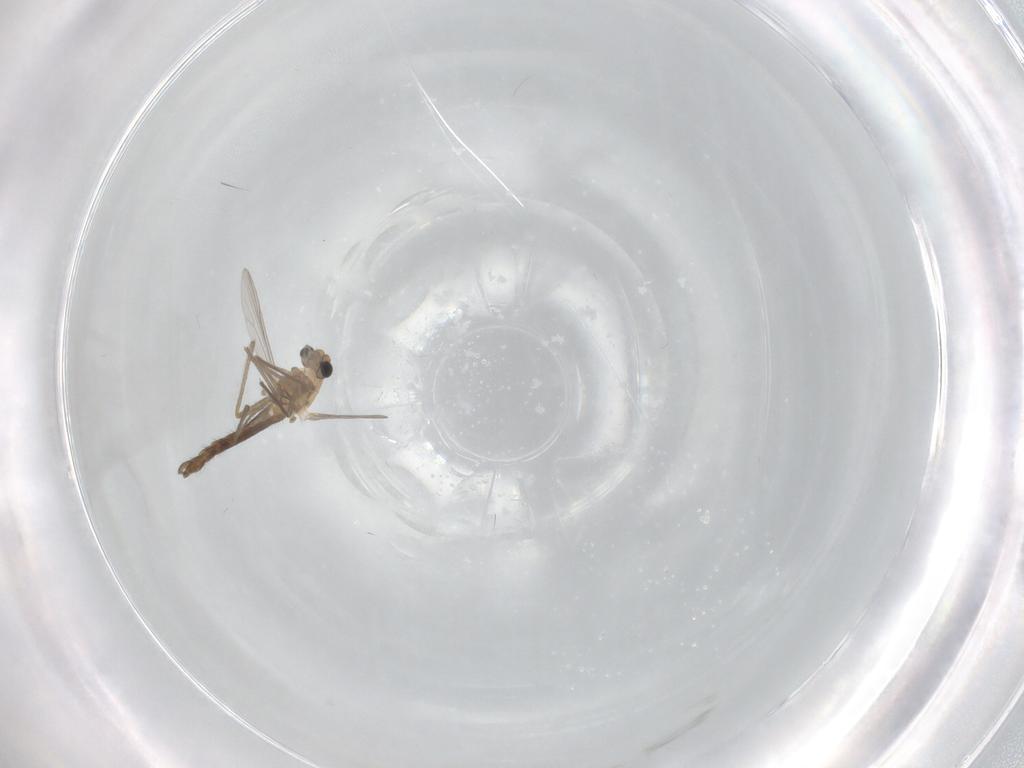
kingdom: Animalia
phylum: Arthropoda
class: Insecta
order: Diptera
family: Chironomidae
